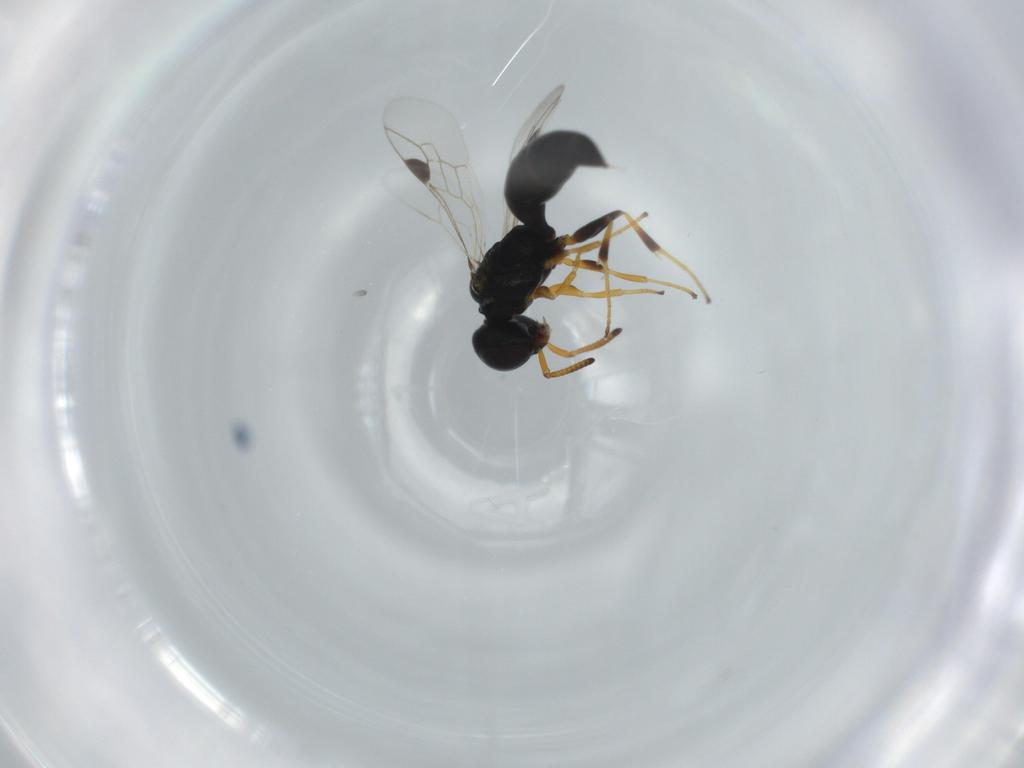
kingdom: Animalia
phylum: Arthropoda
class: Insecta
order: Hymenoptera
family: Pemphredonidae
